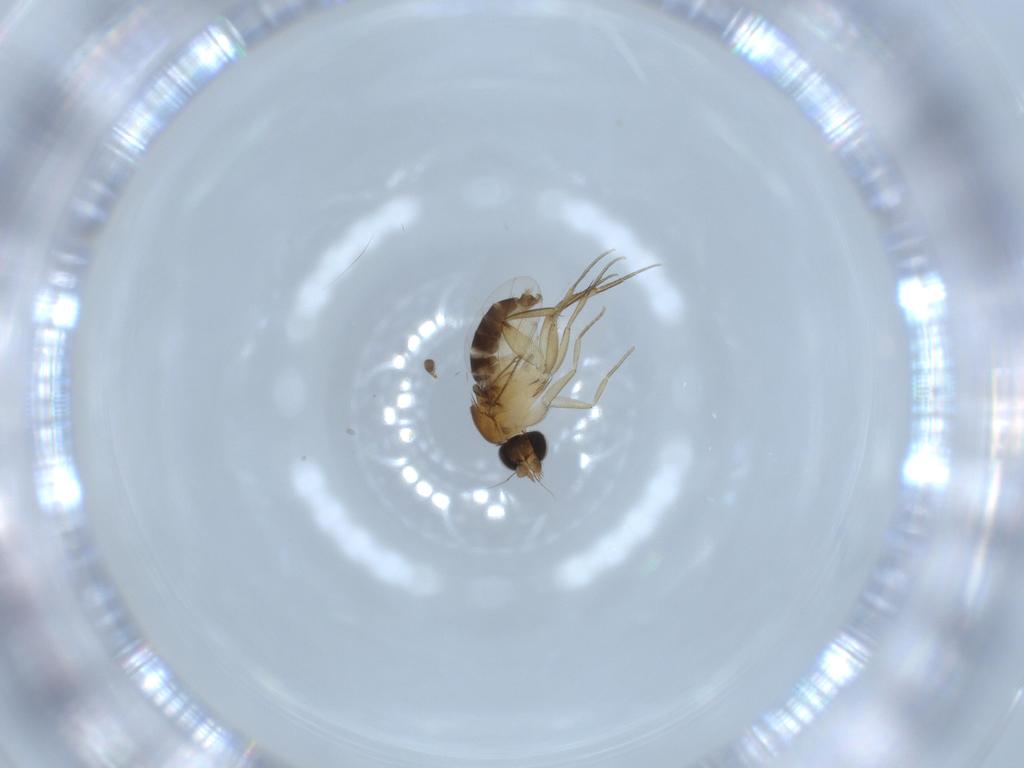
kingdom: Animalia
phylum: Arthropoda
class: Insecta
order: Diptera
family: Phoridae
